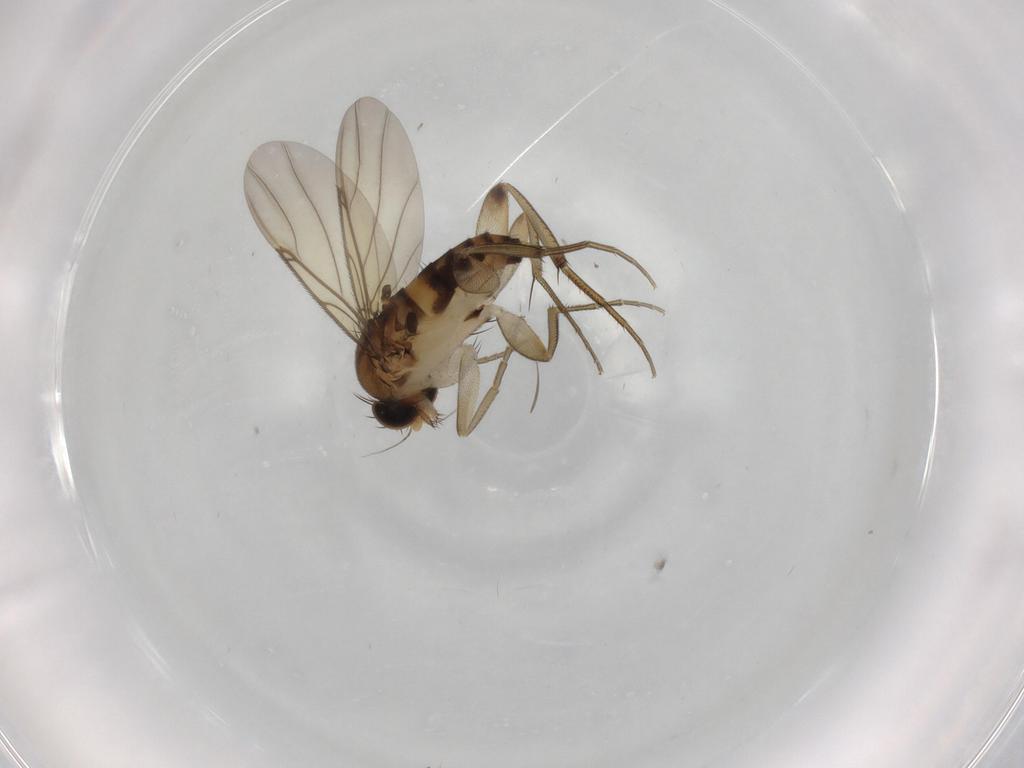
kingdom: Animalia
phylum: Arthropoda
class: Insecta
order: Diptera
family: Phoridae
